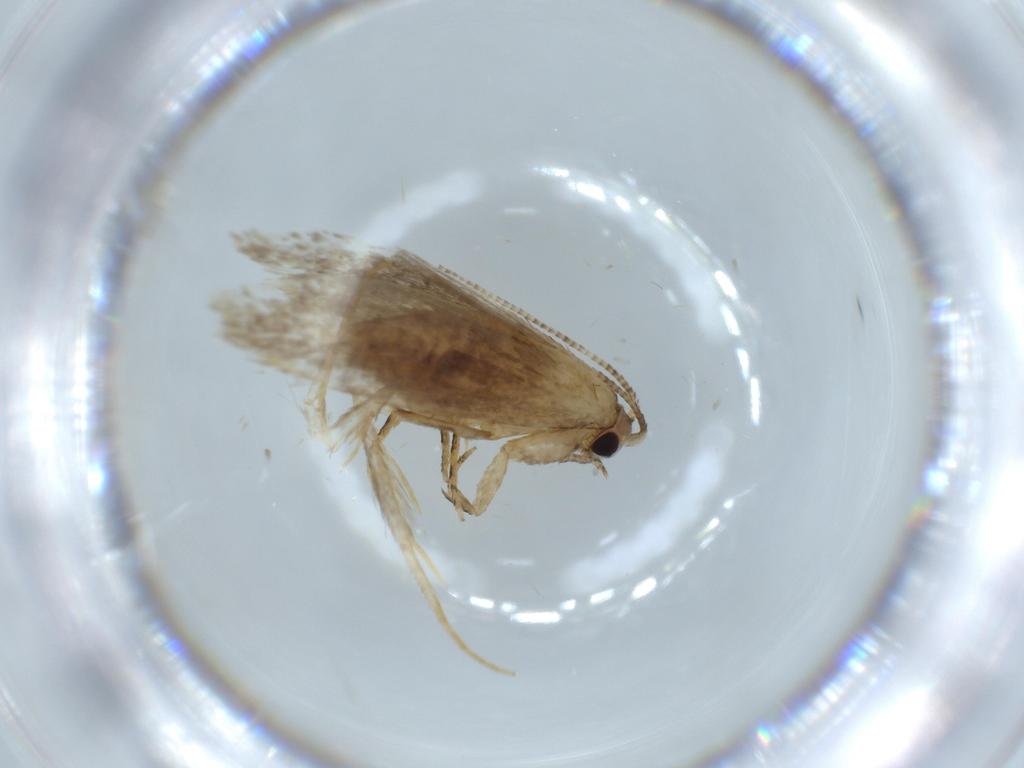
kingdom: Animalia
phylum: Arthropoda
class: Insecta
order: Lepidoptera
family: Tineidae
